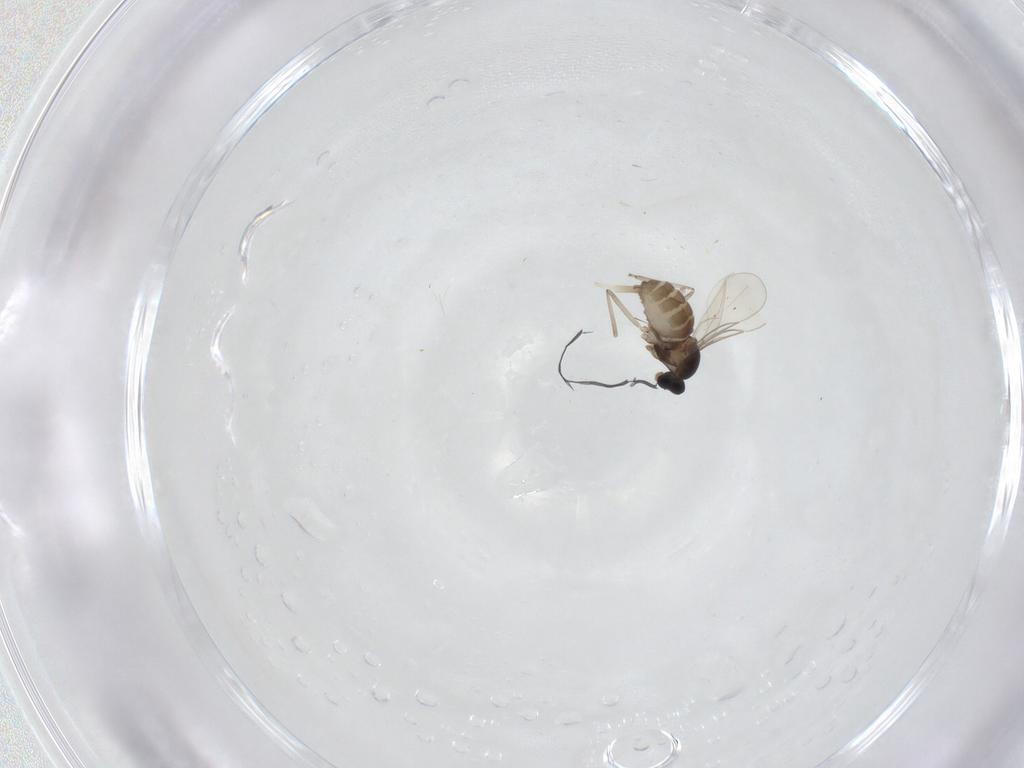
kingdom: Animalia
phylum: Arthropoda
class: Insecta
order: Diptera
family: Cecidomyiidae
